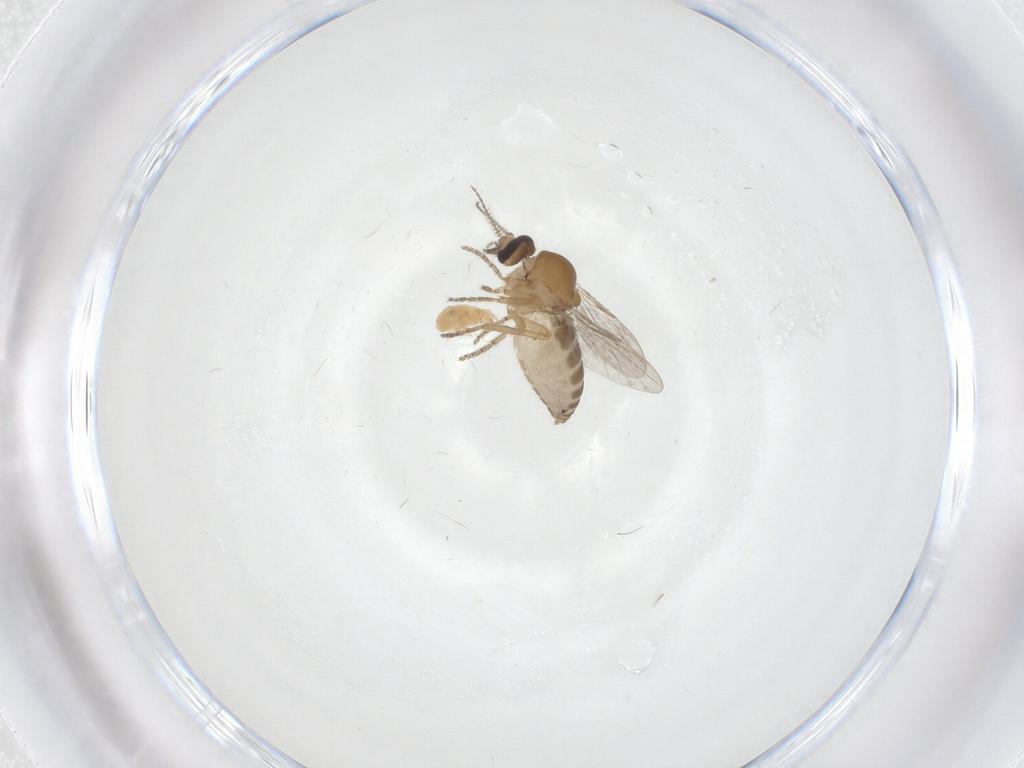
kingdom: Animalia
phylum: Arthropoda
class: Insecta
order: Diptera
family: Ceratopogonidae
